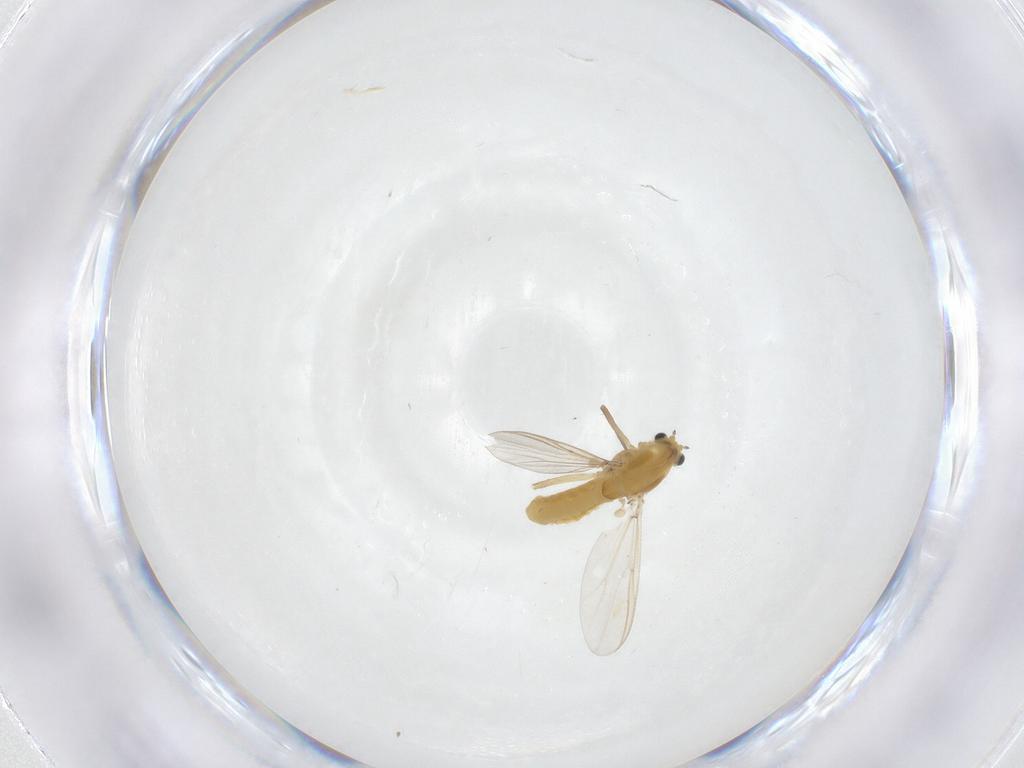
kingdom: Animalia
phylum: Arthropoda
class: Insecta
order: Diptera
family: Chironomidae
